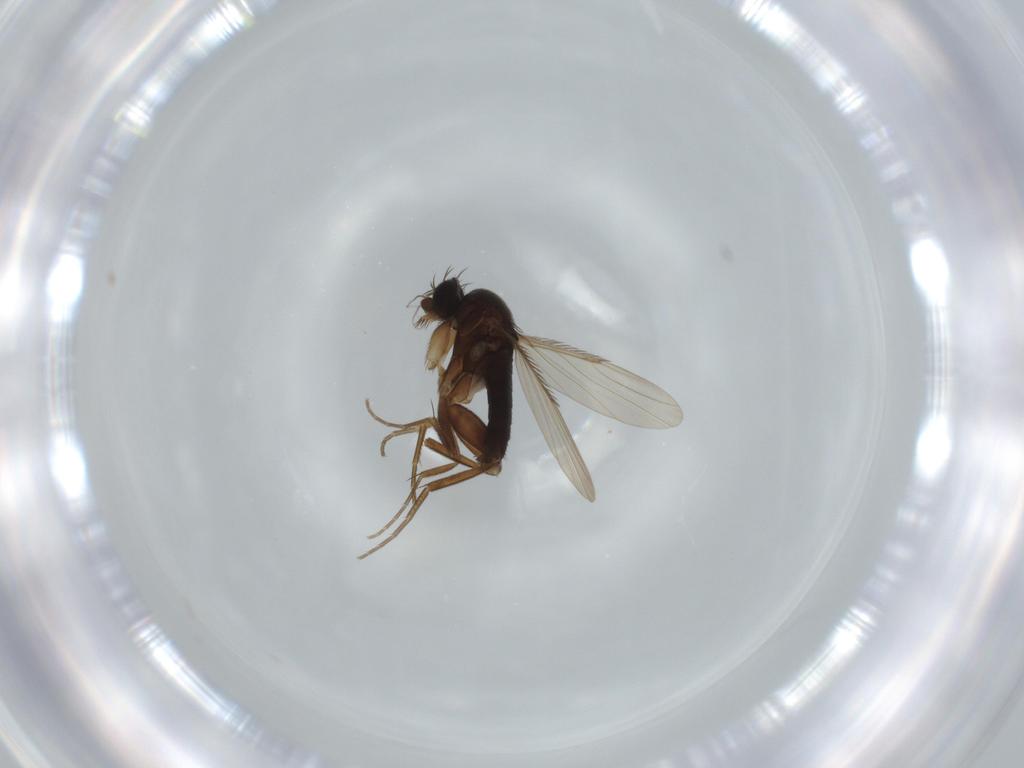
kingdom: Animalia
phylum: Arthropoda
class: Insecta
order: Diptera
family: Phoridae
